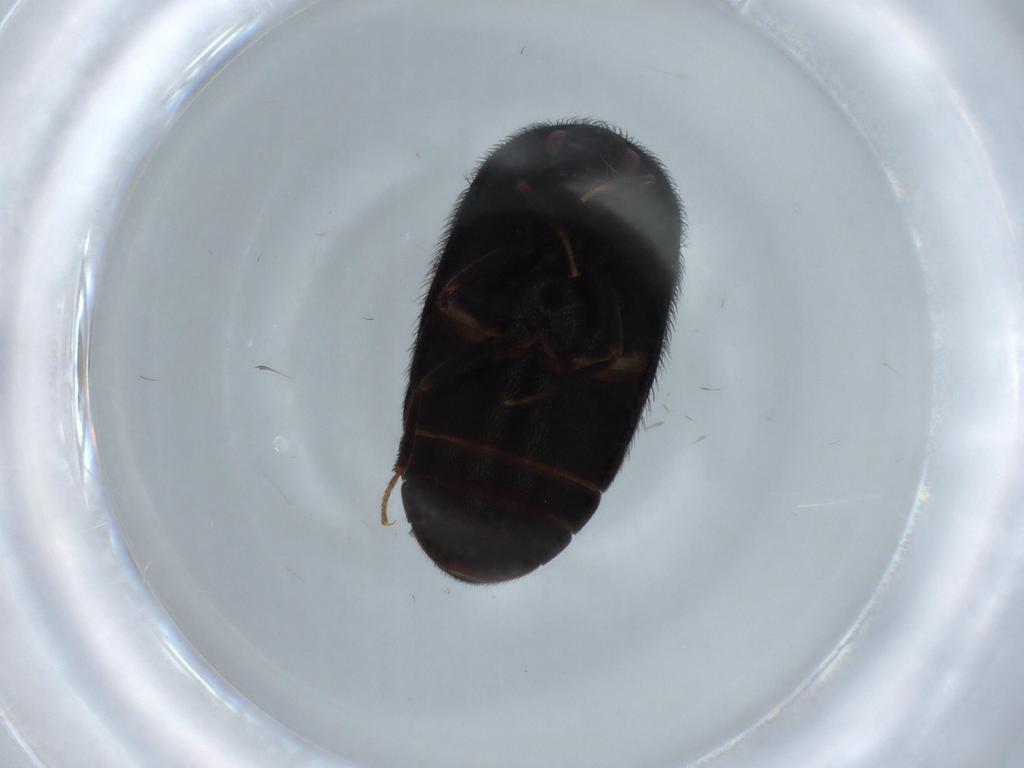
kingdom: Animalia
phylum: Arthropoda
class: Insecta
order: Coleoptera
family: Dermestidae
